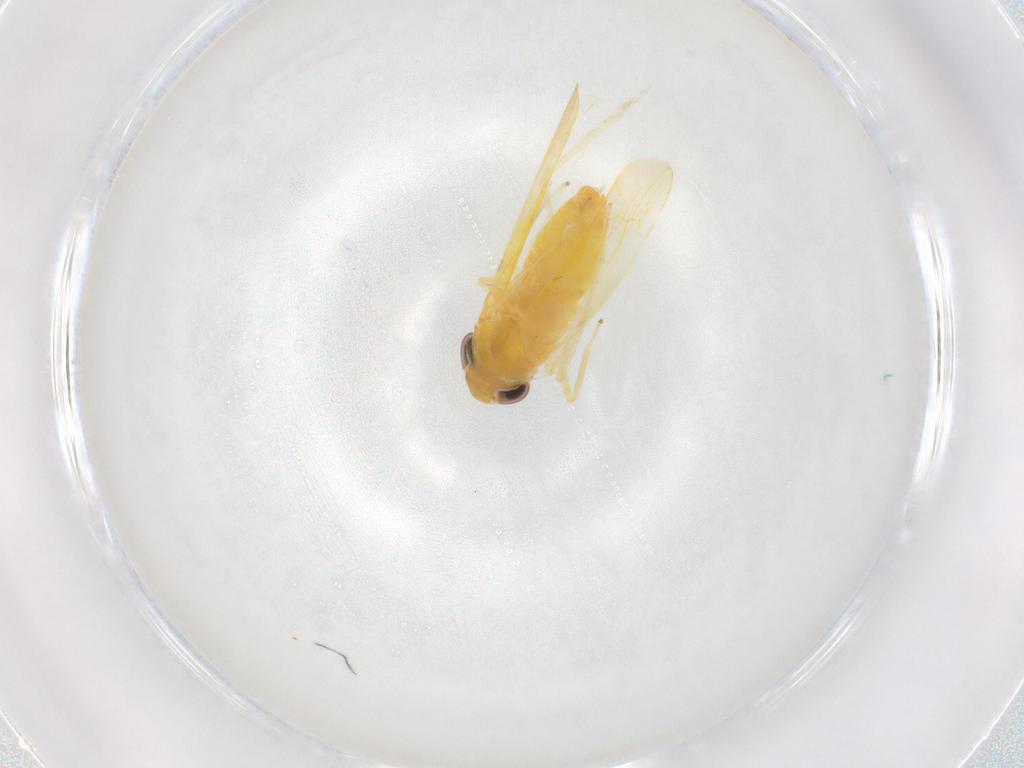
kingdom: Animalia
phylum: Arthropoda
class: Insecta
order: Hemiptera
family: Cicadellidae
